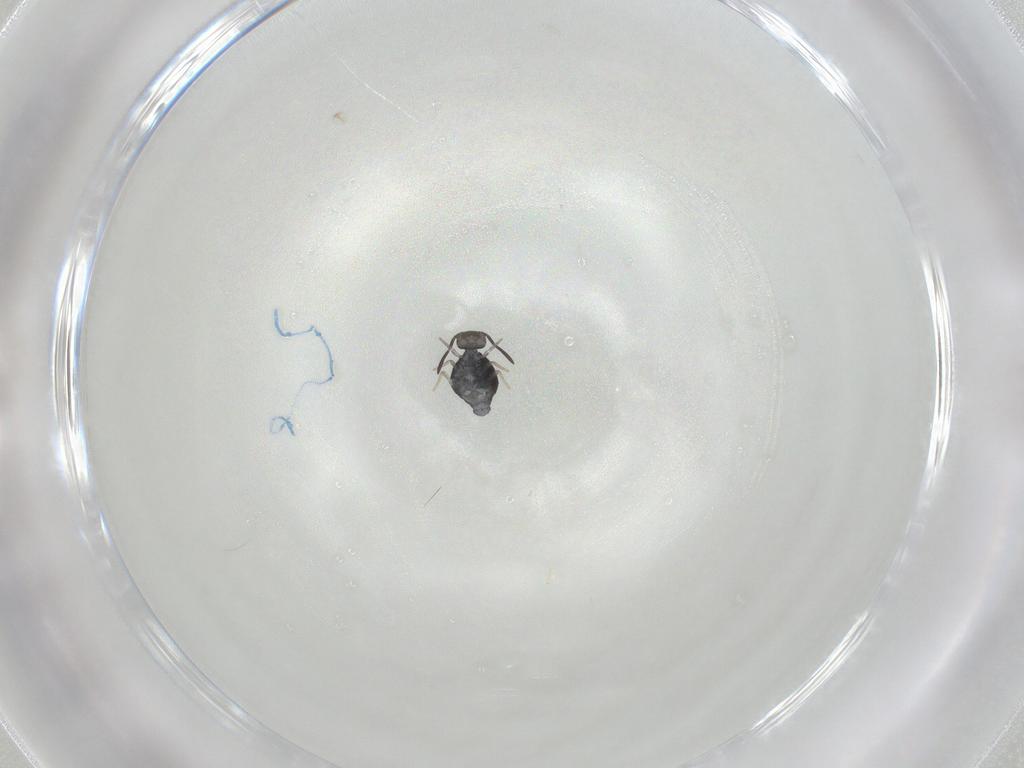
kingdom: Animalia
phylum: Arthropoda
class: Collembola
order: Symphypleona
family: Katiannidae
